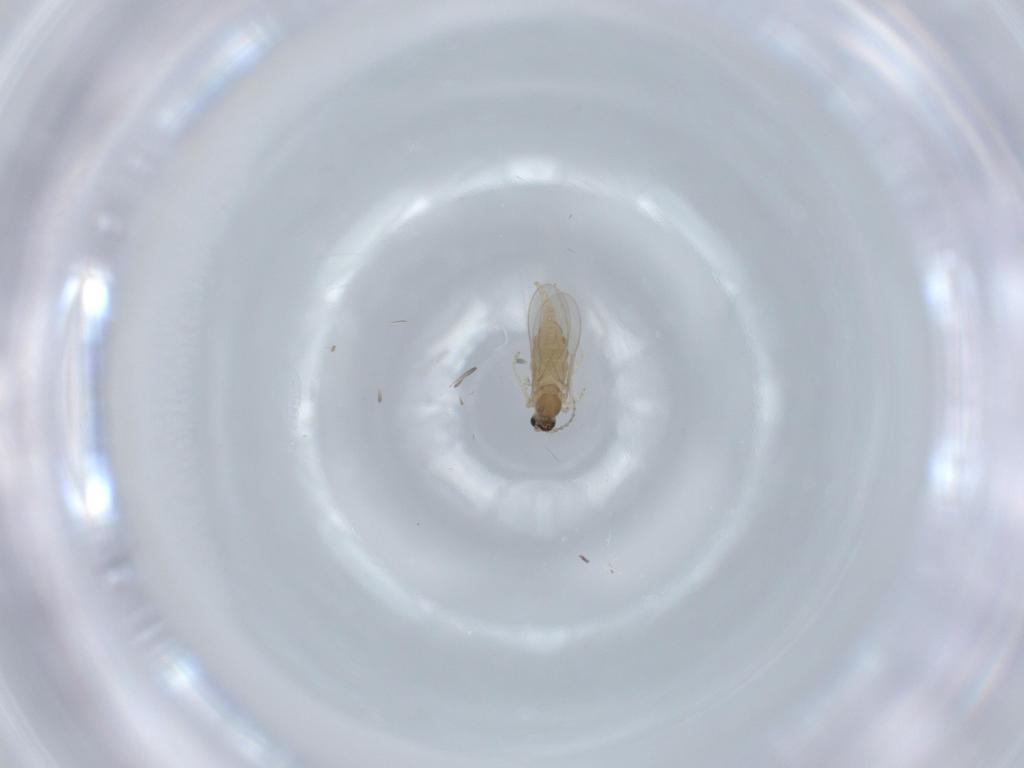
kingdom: Animalia
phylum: Arthropoda
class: Insecta
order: Diptera
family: Cecidomyiidae
